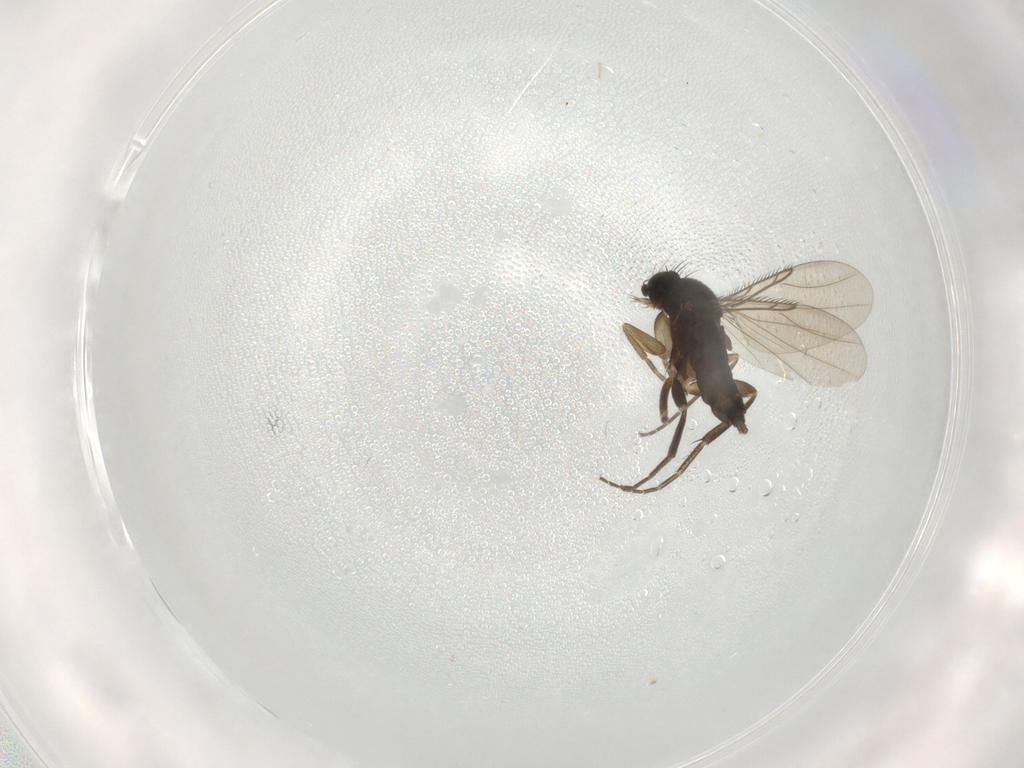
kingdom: Animalia
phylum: Arthropoda
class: Insecta
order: Diptera
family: Phoridae
